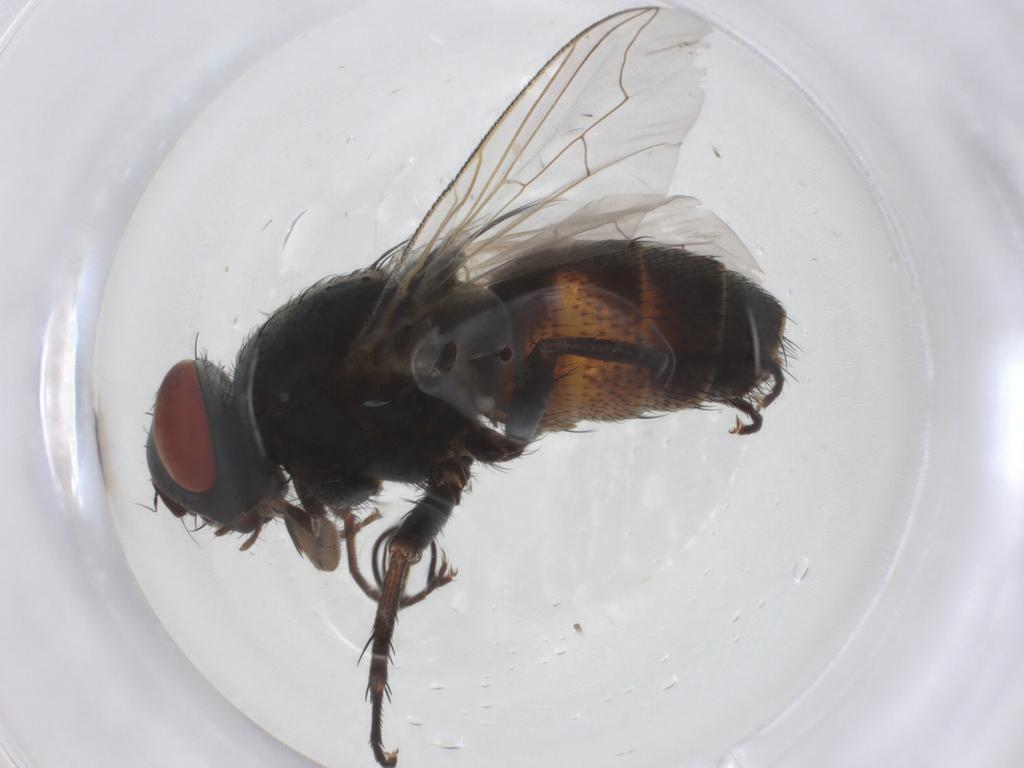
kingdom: Animalia
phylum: Arthropoda
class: Insecta
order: Diptera
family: Sarcophagidae
